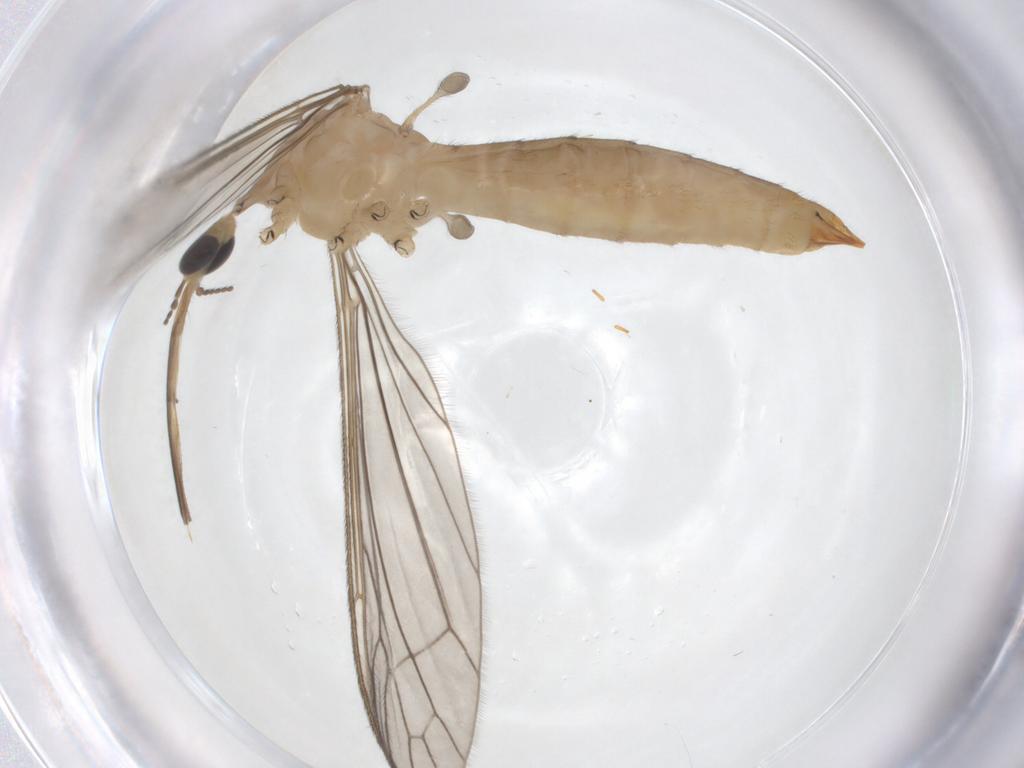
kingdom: Animalia
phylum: Arthropoda
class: Insecta
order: Diptera
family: Limoniidae
